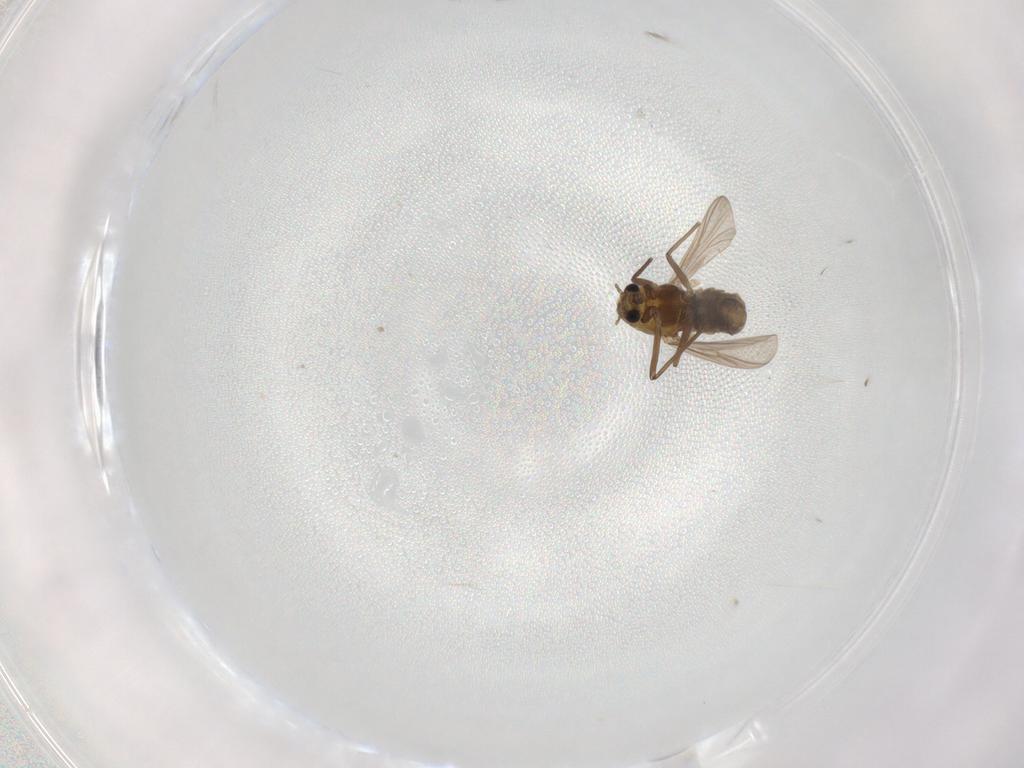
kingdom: Animalia
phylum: Arthropoda
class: Insecta
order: Diptera
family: Chironomidae
